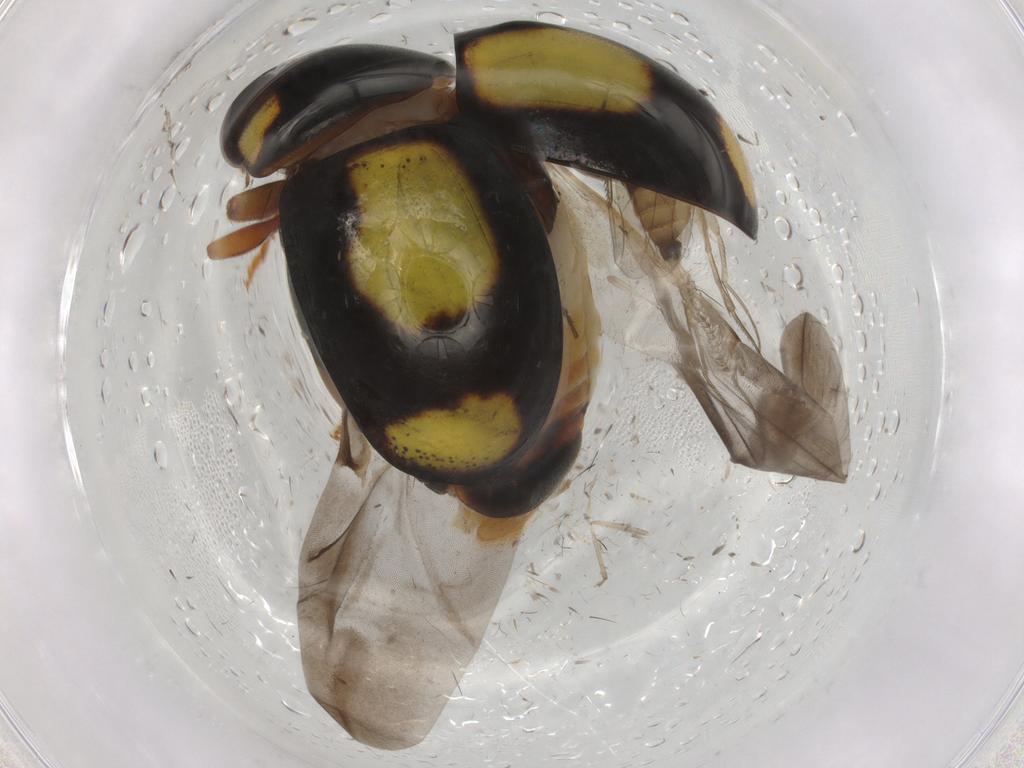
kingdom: Animalia
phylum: Arthropoda
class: Insecta
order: Coleoptera
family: Coccinellidae
